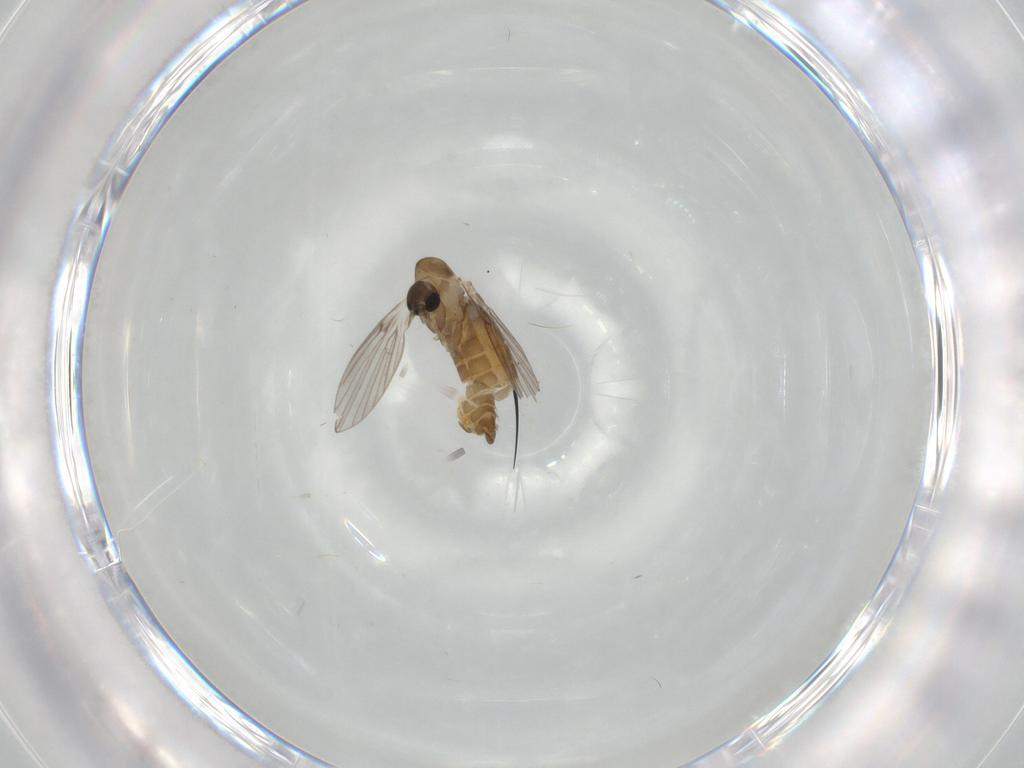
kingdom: Animalia
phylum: Arthropoda
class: Insecta
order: Diptera
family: Psychodidae
